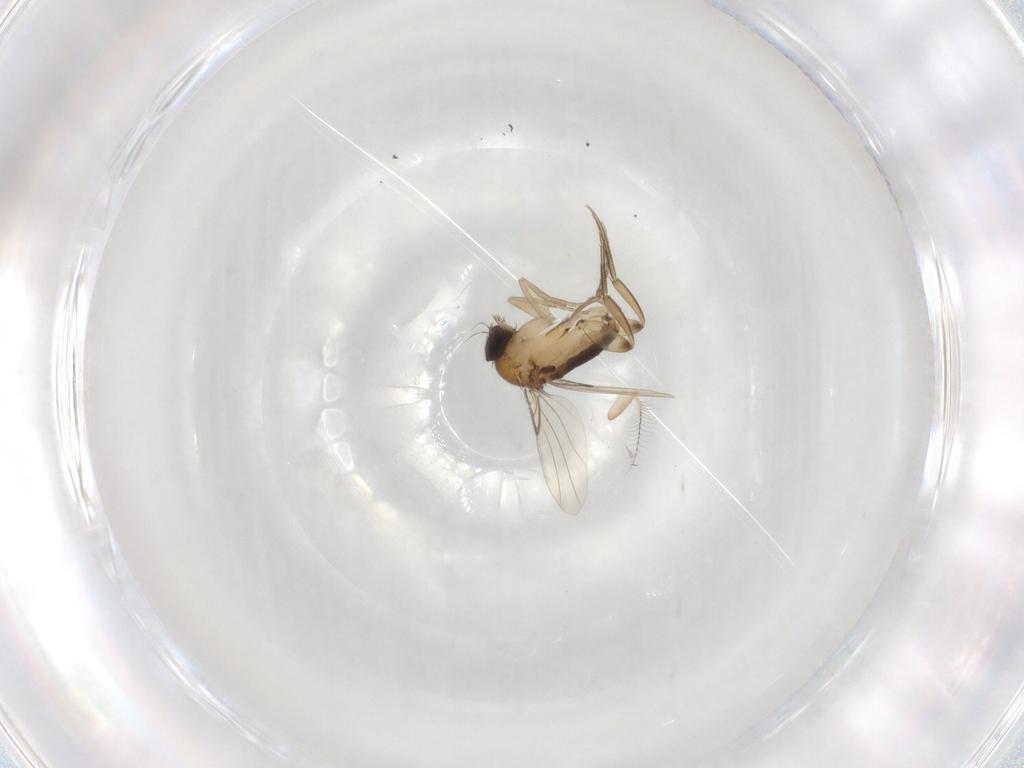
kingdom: Animalia
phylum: Arthropoda
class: Insecta
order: Diptera
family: Phoridae
